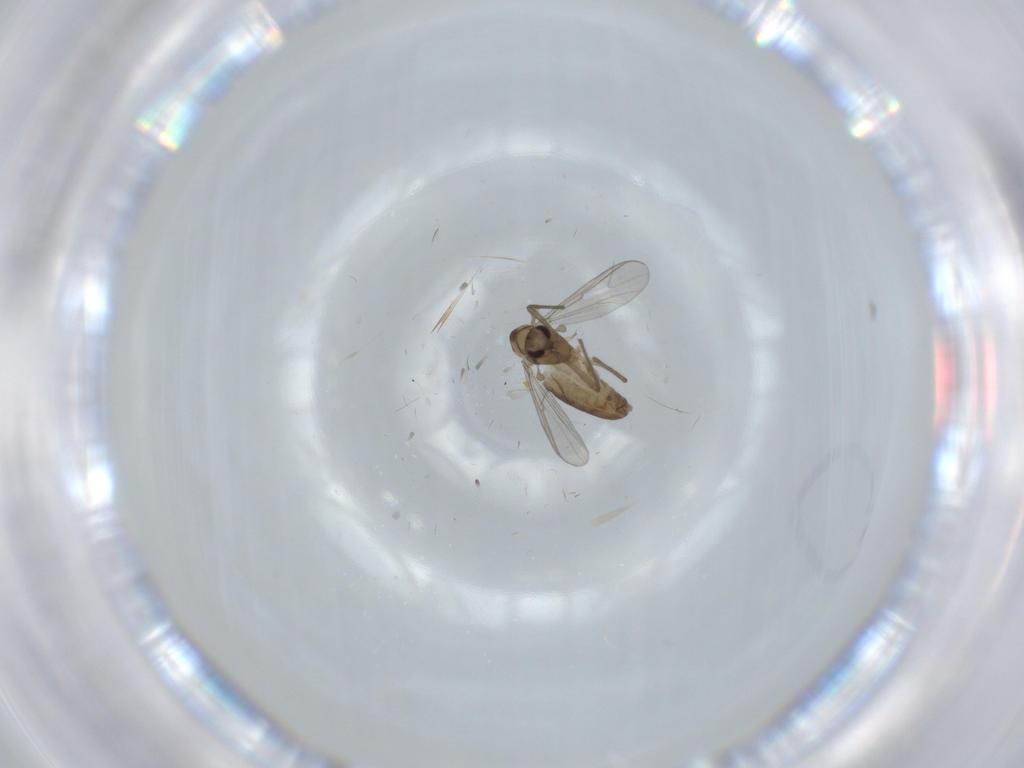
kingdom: Animalia
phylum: Arthropoda
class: Insecta
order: Diptera
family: Chironomidae
